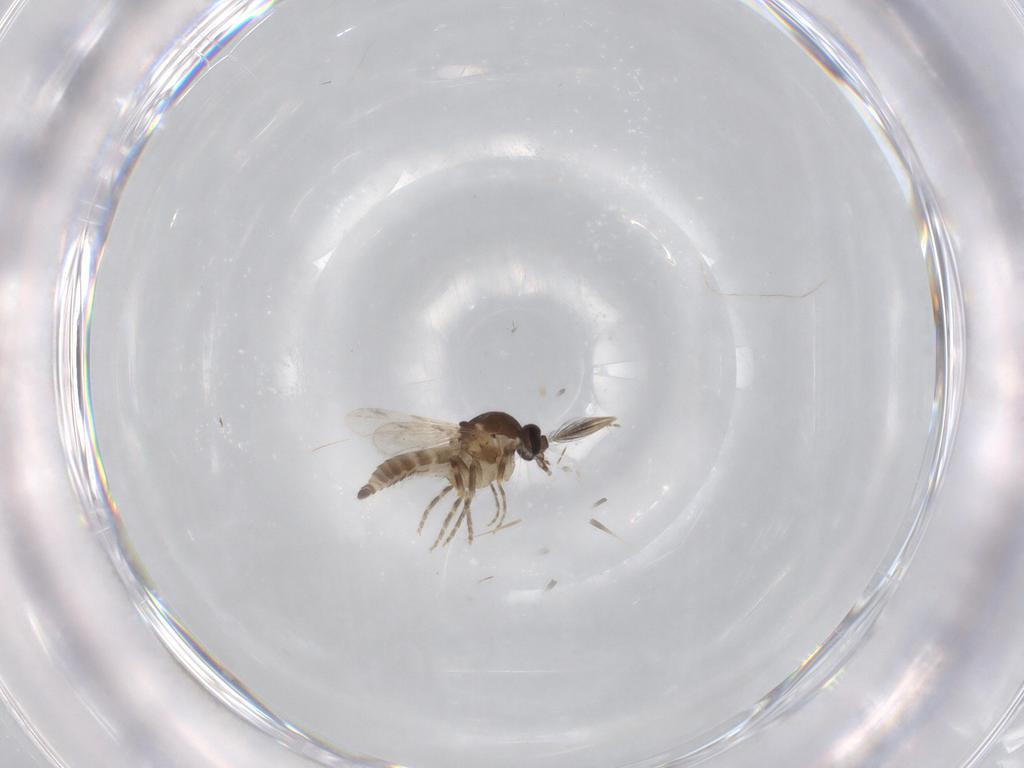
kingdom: Animalia
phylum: Arthropoda
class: Insecta
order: Diptera
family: Ceratopogonidae
